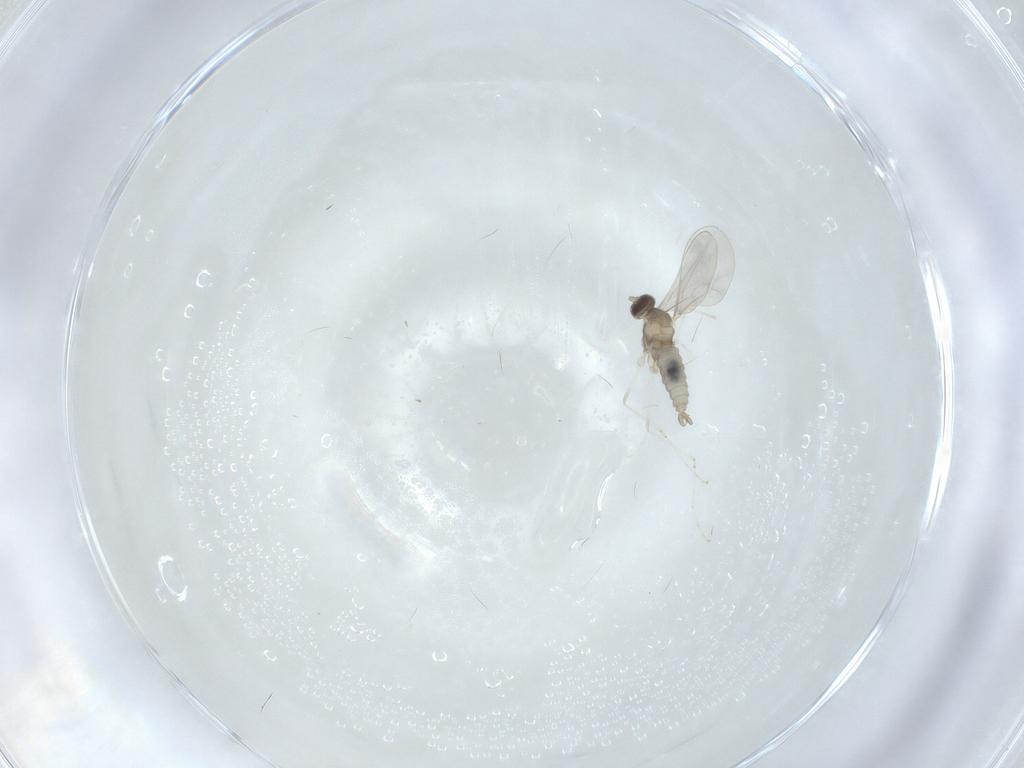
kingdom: Animalia
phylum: Arthropoda
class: Insecta
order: Diptera
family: Cecidomyiidae
